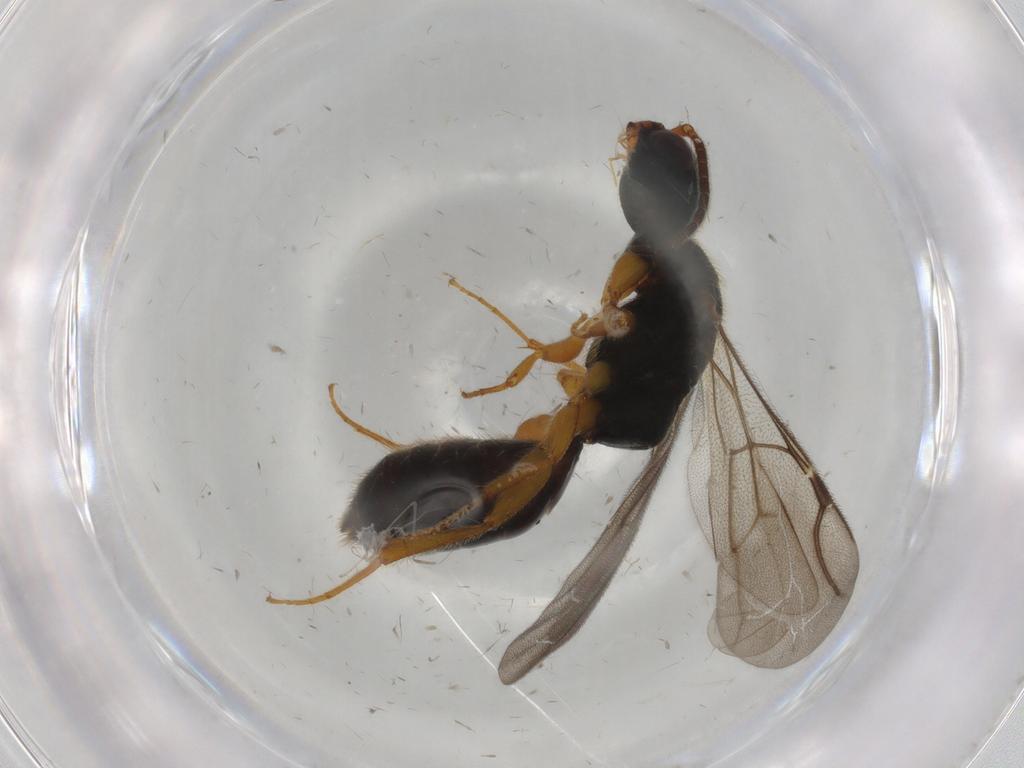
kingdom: Animalia
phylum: Arthropoda
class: Insecta
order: Hymenoptera
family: Bethylidae
